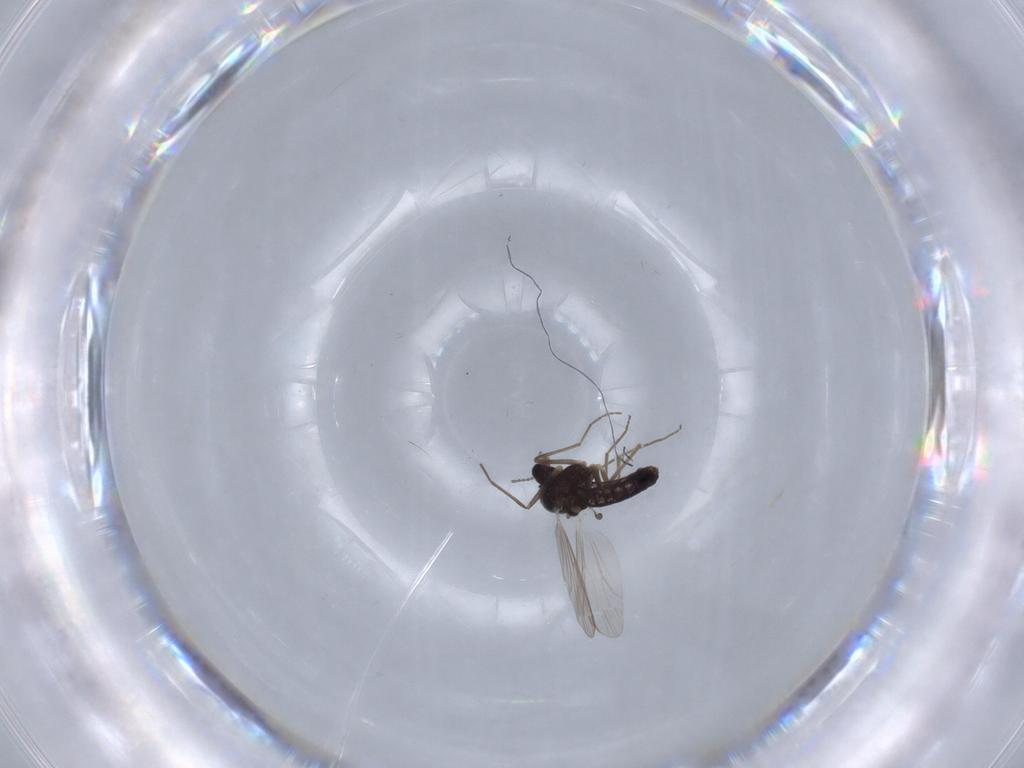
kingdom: Animalia
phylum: Arthropoda
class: Insecta
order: Diptera
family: Chironomidae
